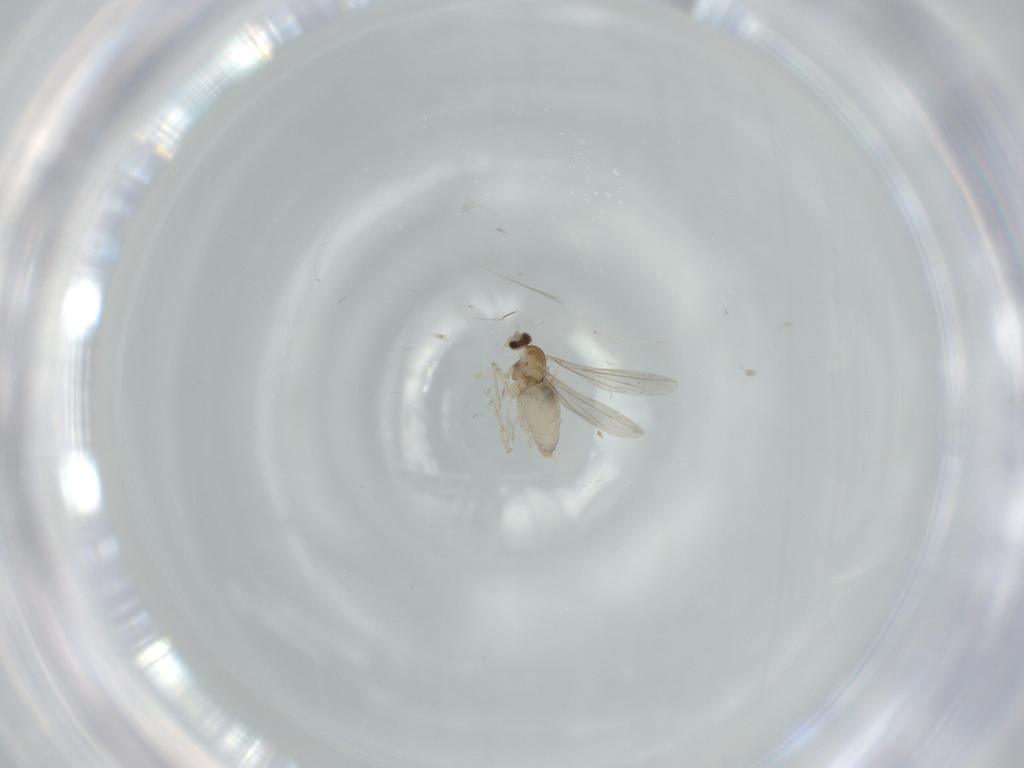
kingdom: Animalia
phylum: Arthropoda
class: Insecta
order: Diptera
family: Cecidomyiidae
